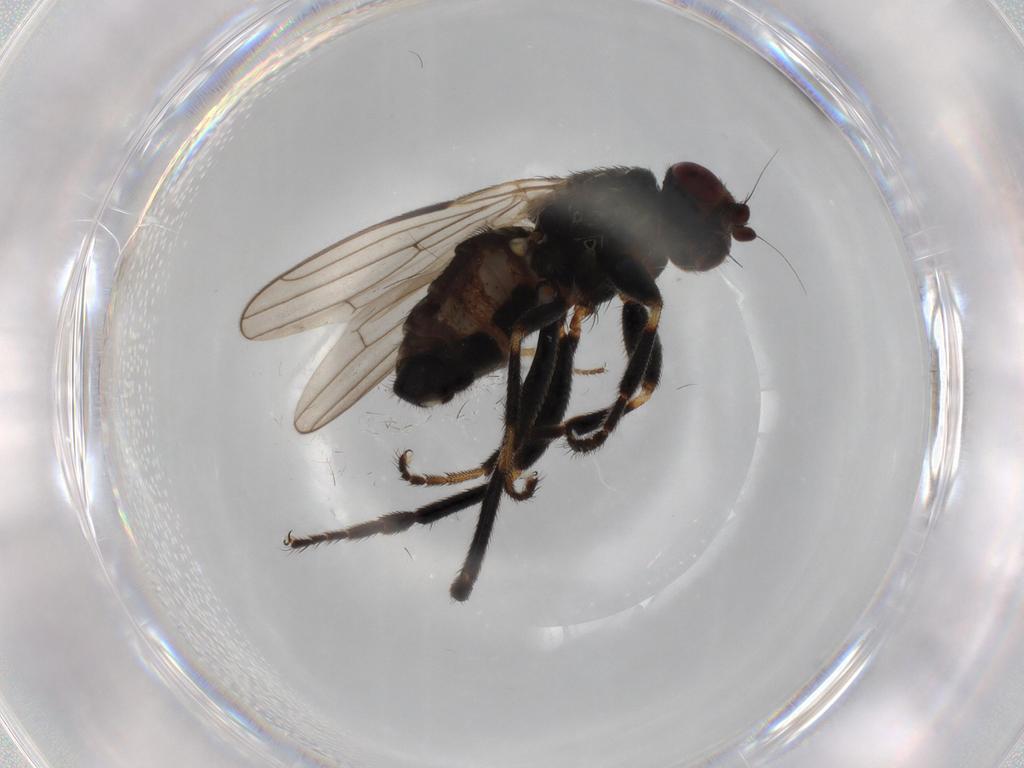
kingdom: Animalia
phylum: Arthropoda
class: Insecta
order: Diptera
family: Drosophilidae
